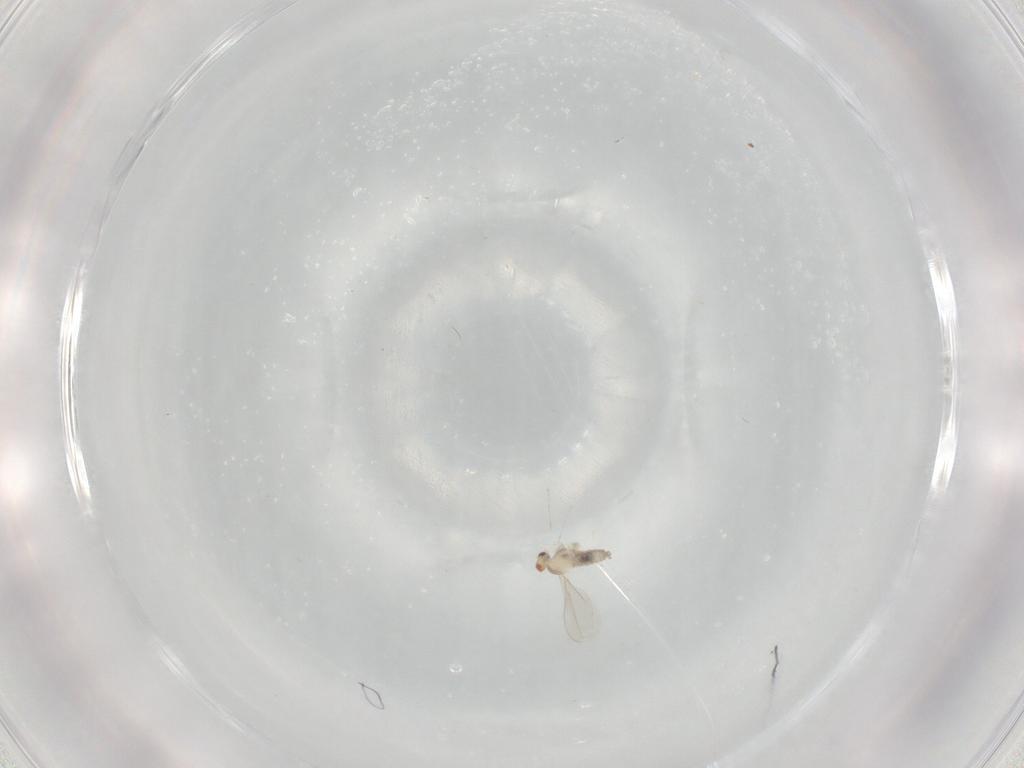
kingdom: Animalia
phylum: Arthropoda
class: Insecta
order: Diptera
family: Cecidomyiidae
